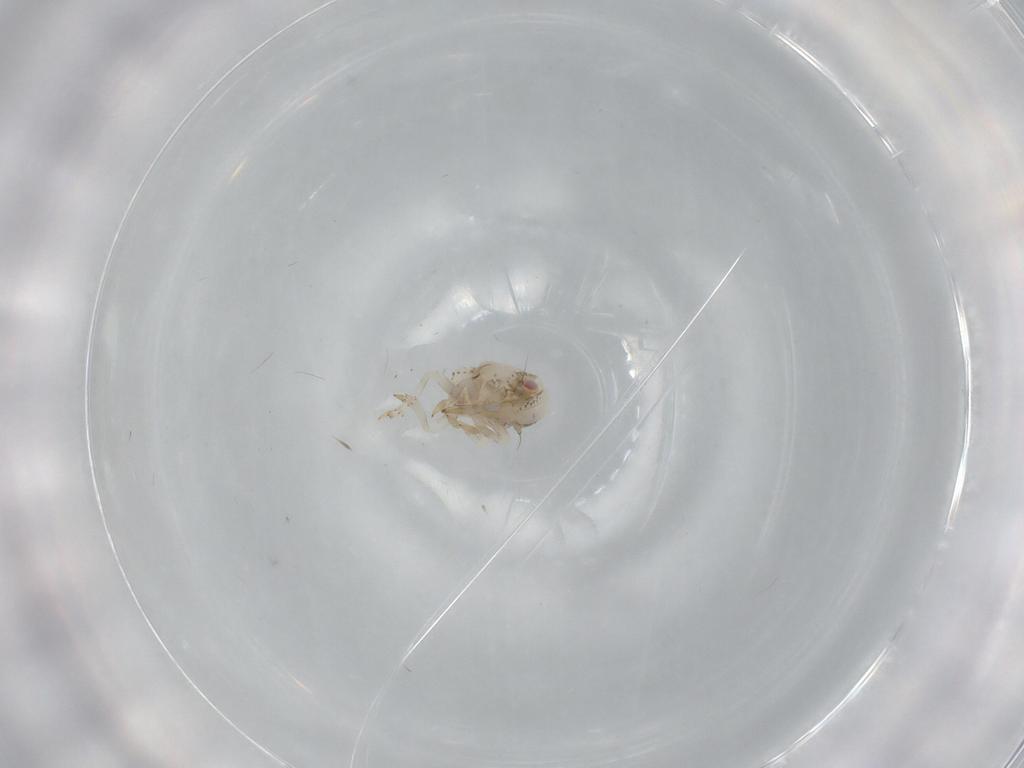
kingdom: Animalia
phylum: Arthropoda
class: Insecta
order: Hemiptera
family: Acanaloniidae
